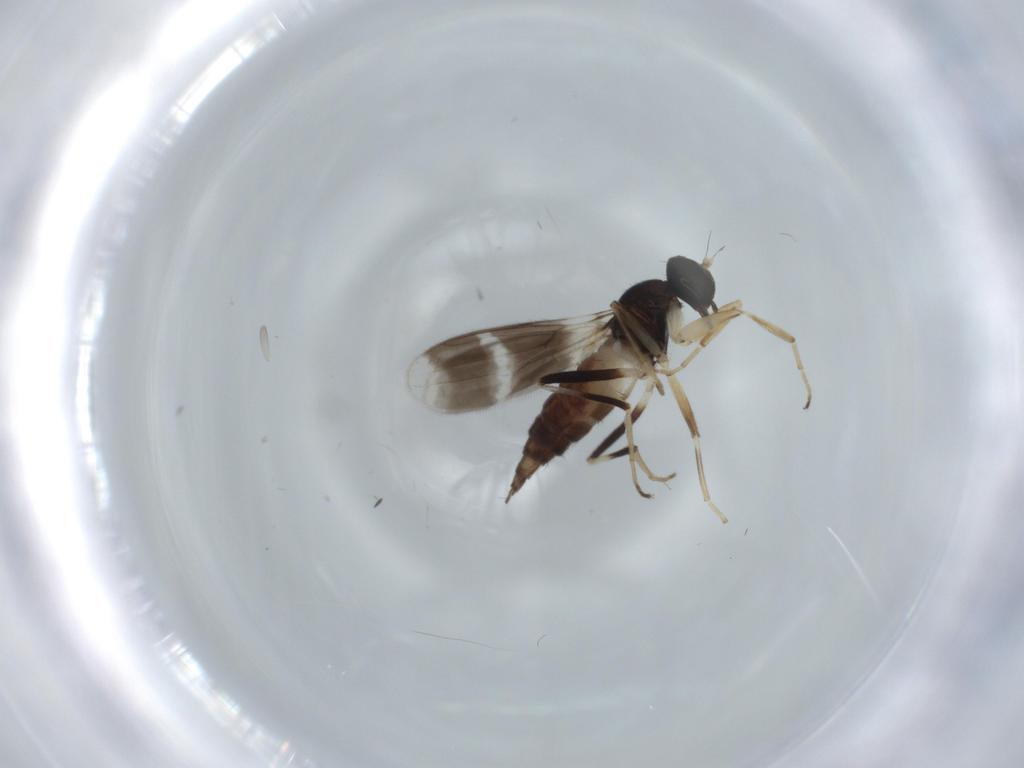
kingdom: Animalia
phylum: Arthropoda
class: Insecta
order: Diptera
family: Hybotidae
